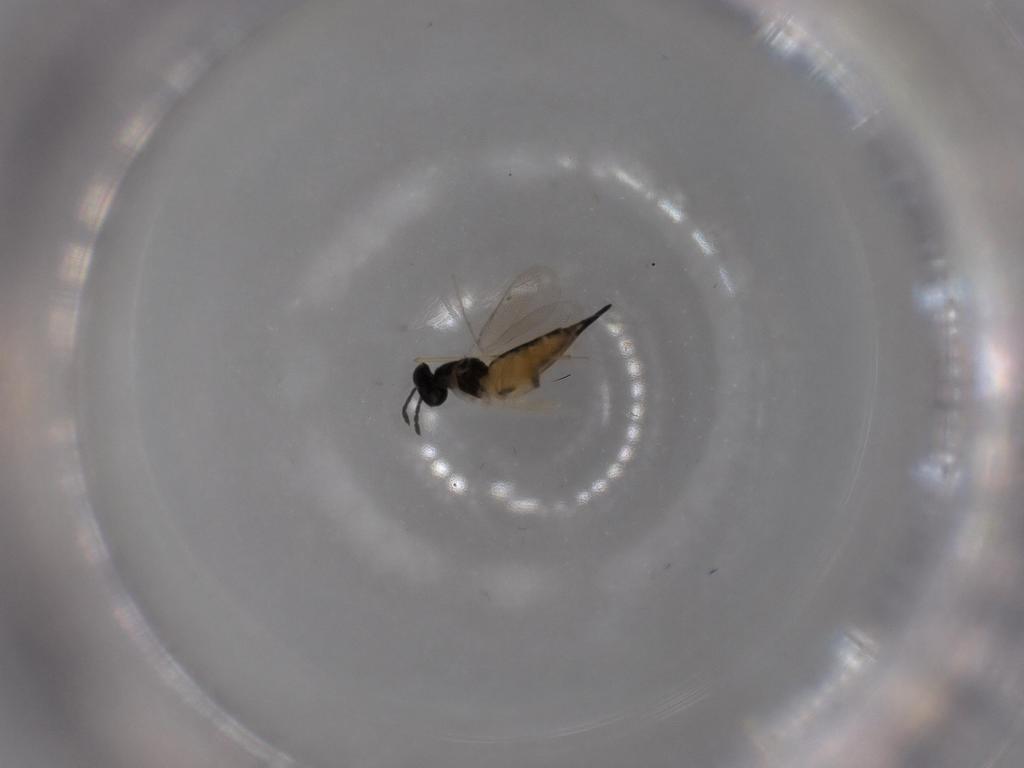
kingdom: Animalia
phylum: Arthropoda
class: Insecta
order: Hymenoptera
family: Eulophidae
